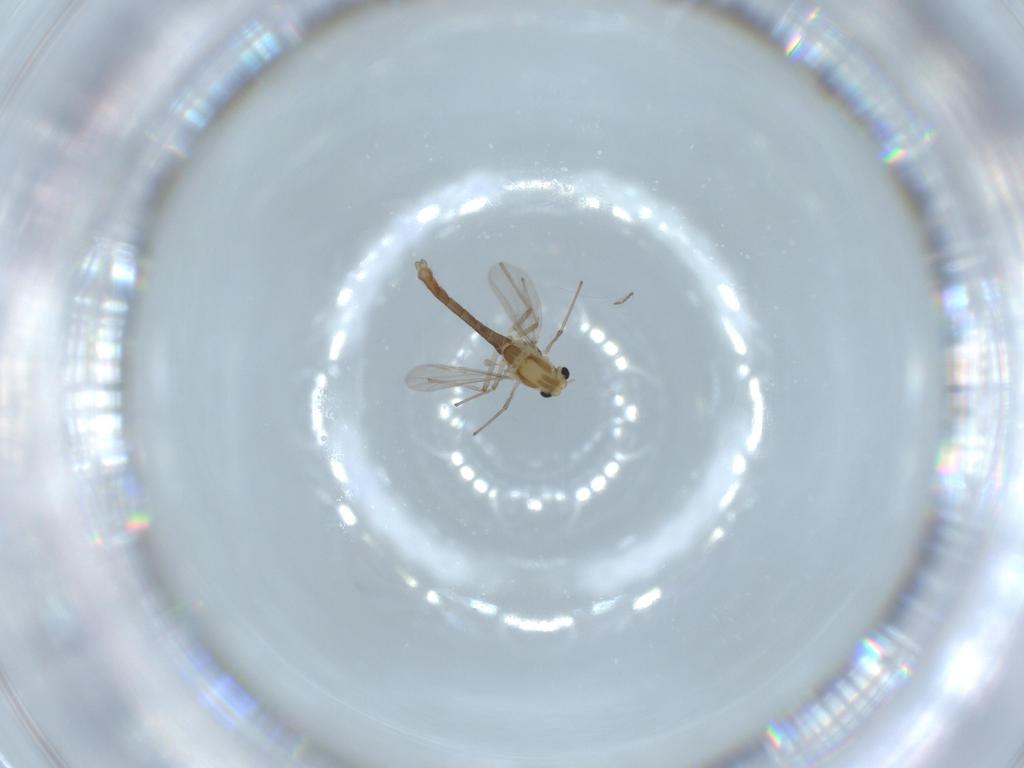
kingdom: Animalia
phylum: Arthropoda
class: Insecta
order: Diptera
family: Chironomidae
